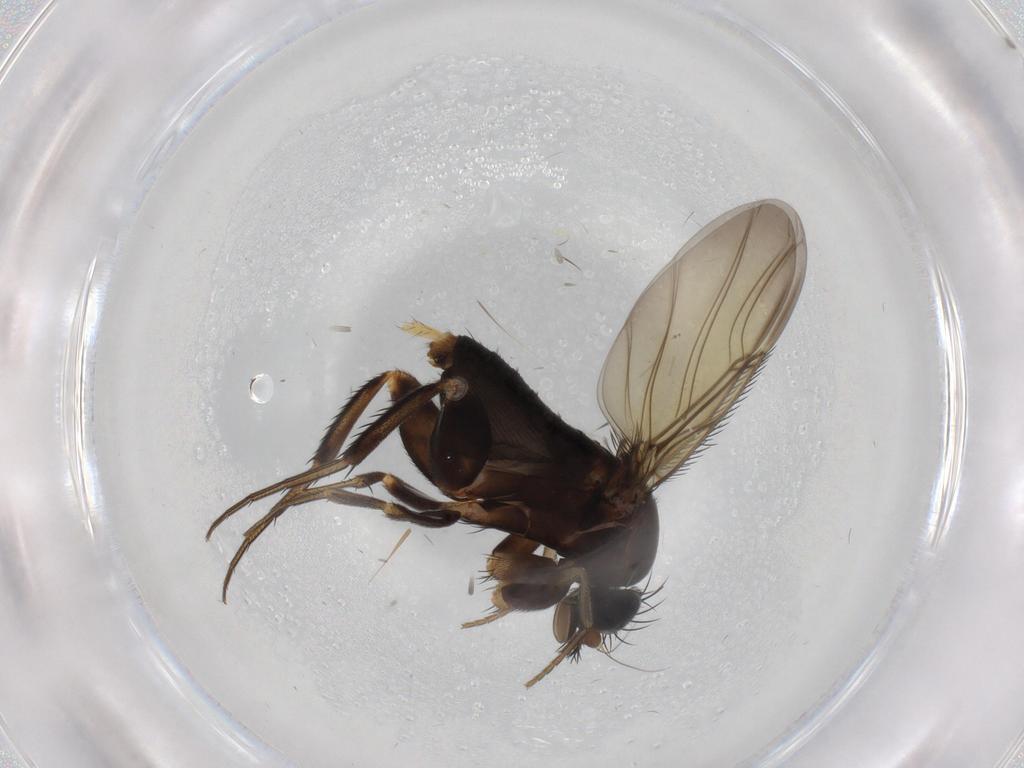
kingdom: Animalia
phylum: Arthropoda
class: Insecta
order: Diptera
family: Phoridae
